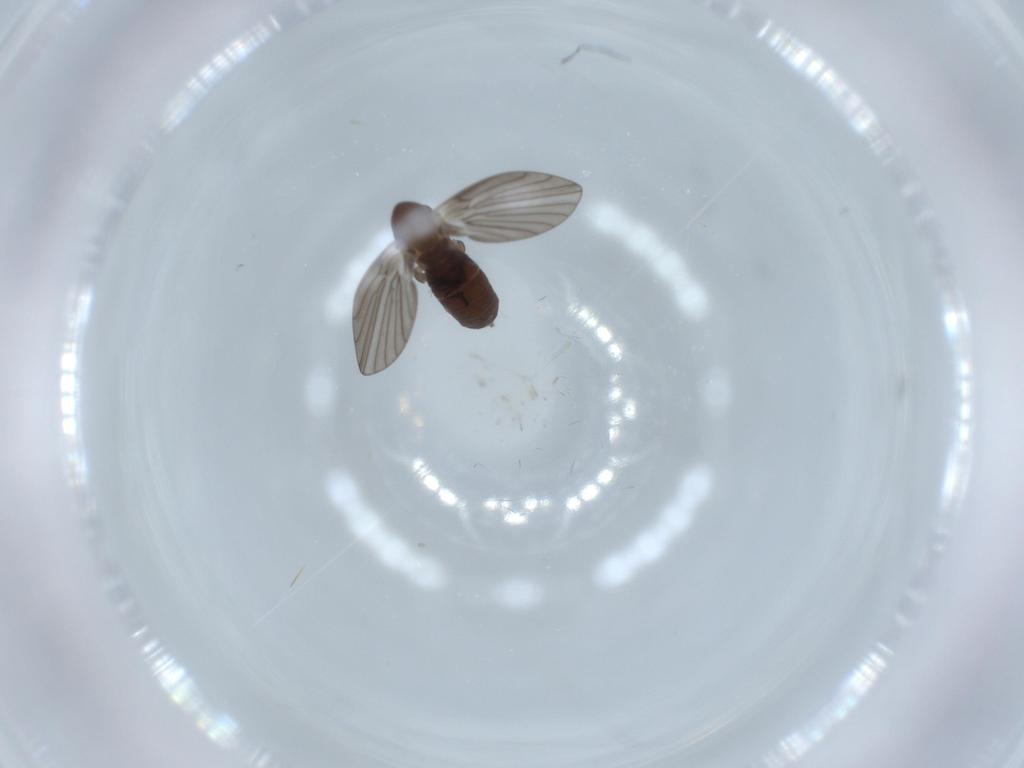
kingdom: Animalia
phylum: Arthropoda
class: Insecta
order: Diptera
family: Psychodidae
